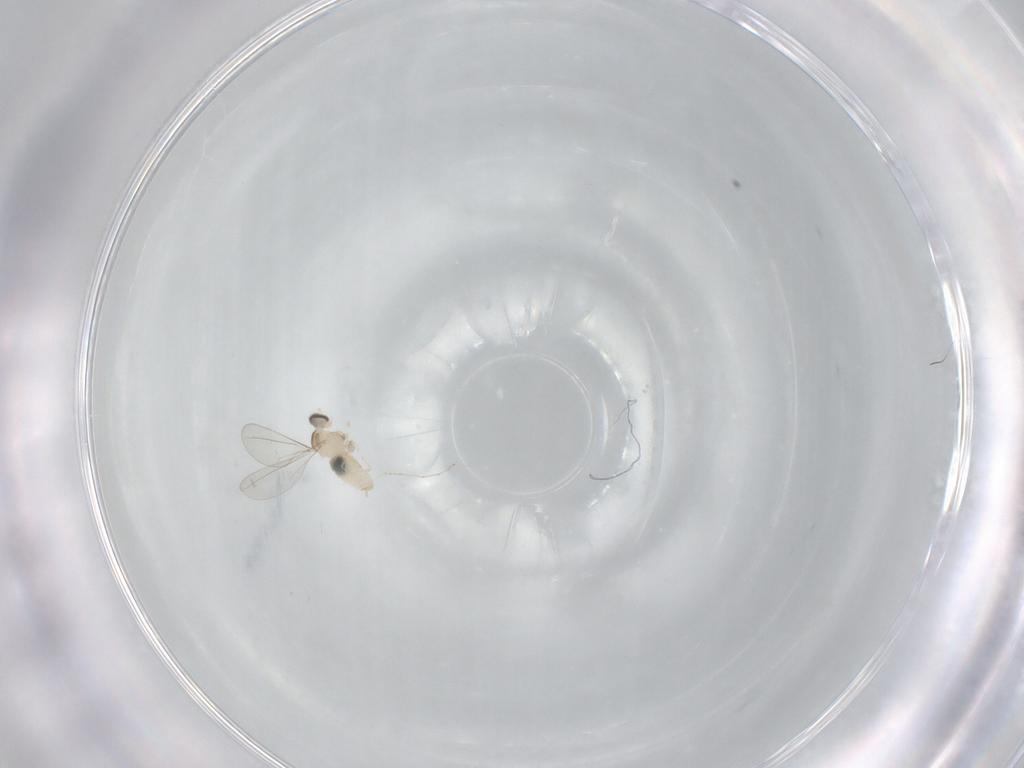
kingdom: Animalia
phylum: Arthropoda
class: Insecta
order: Diptera
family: Cecidomyiidae
